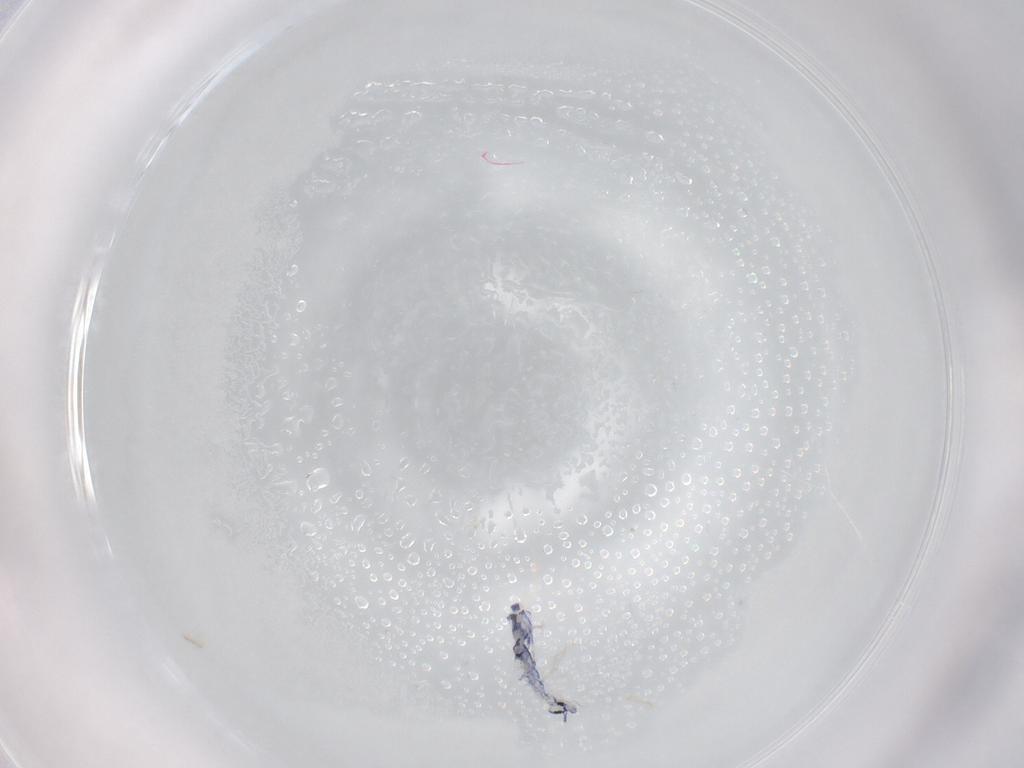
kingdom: Animalia
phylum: Arthropoda
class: Collembola
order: Entomobryomorpha
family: Entomobryidae
